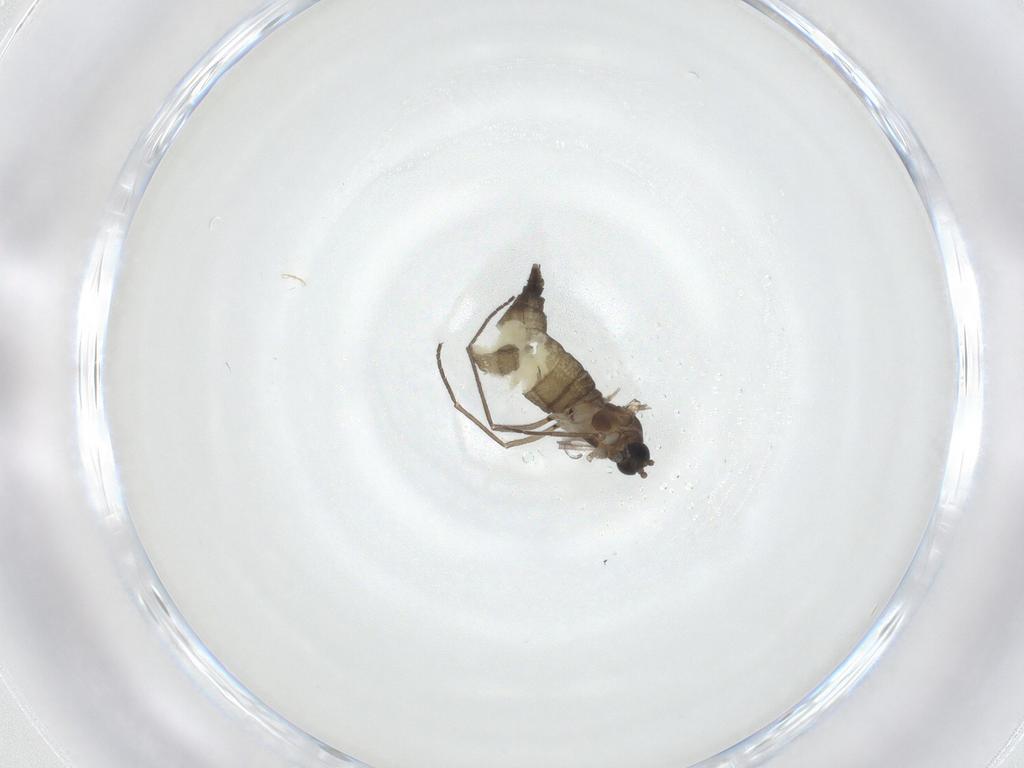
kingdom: Animalia
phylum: Arthropoda
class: Insecta
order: Diptera
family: Sciaridae
